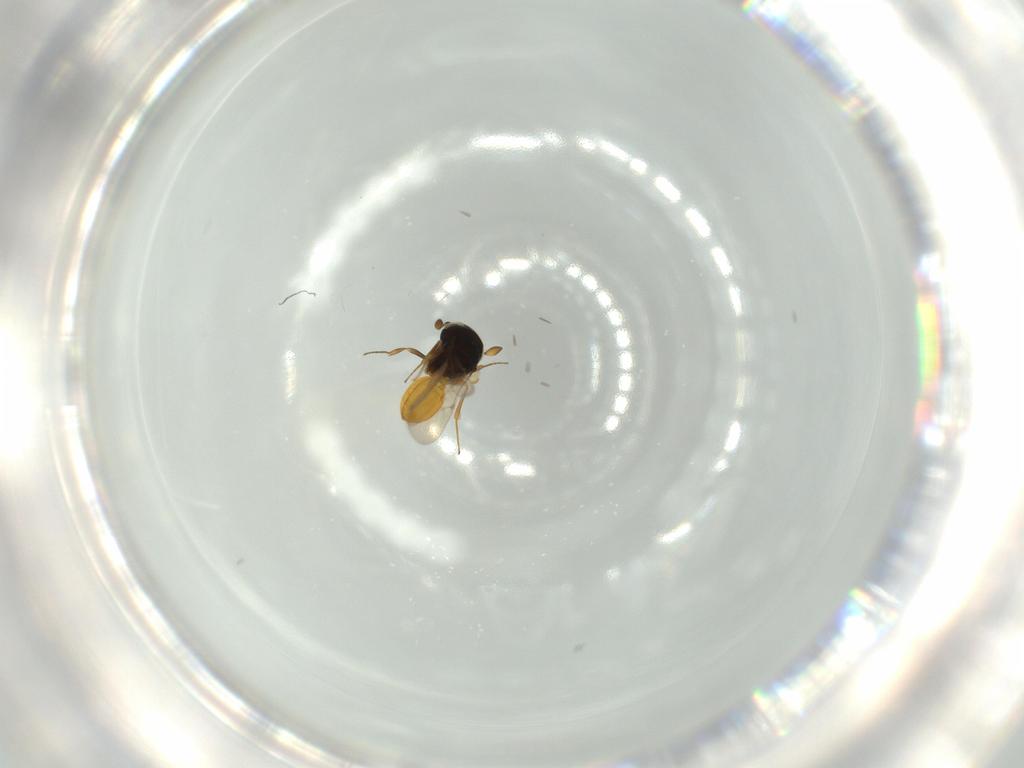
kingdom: Animalia
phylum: Arthropoda
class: Insecta
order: Hymenoptera
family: Scelionidae
